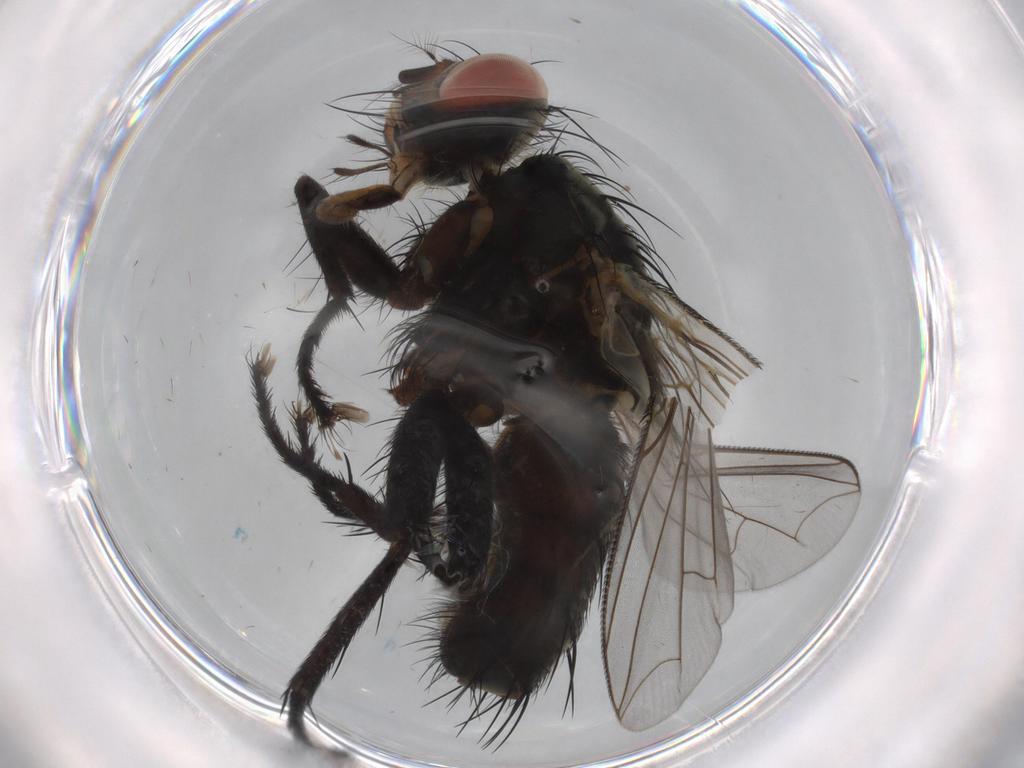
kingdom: Animalia
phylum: Arthropoda
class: Insecta
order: Diptera
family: Sarcophagidae
